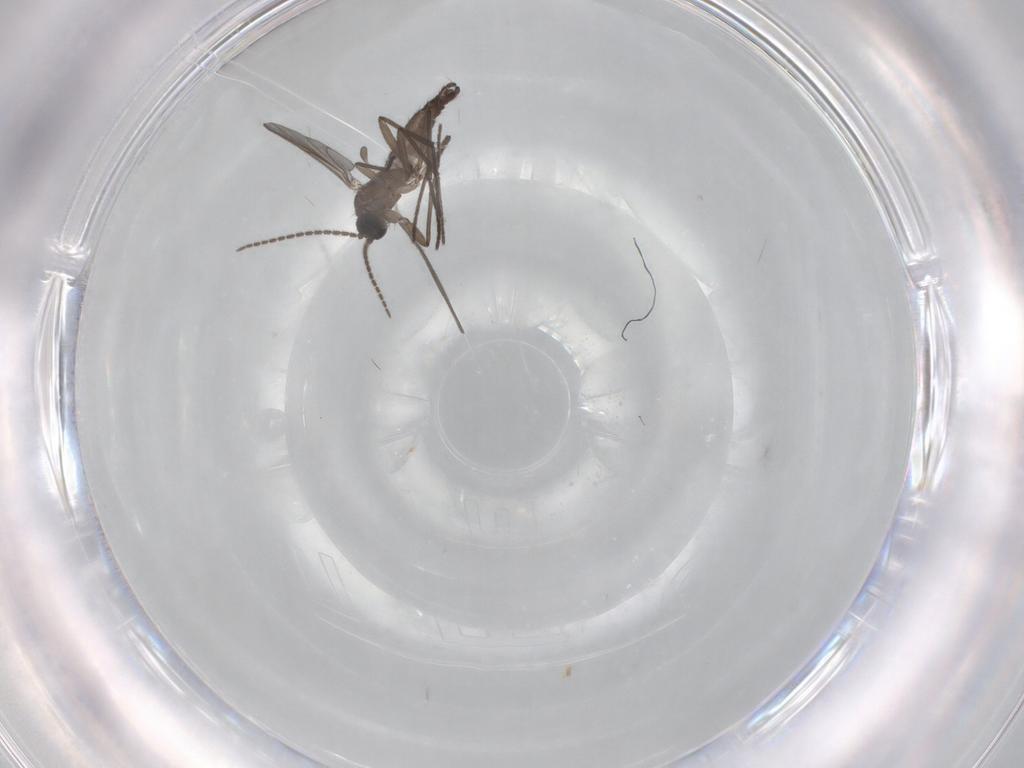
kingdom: Animalia
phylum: Arthropoda
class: Insecta
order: Diptera
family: Sciaridae
